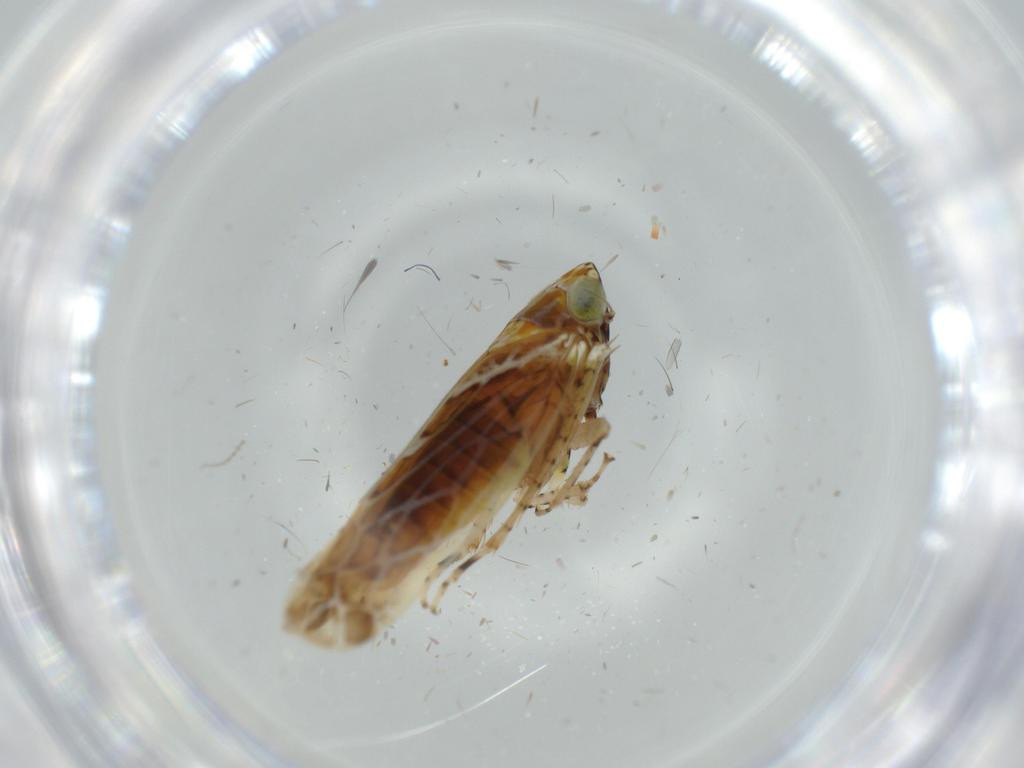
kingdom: Animalia
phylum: Arthropoda
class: Insecta
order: Hemiptera
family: Cicadellidae
